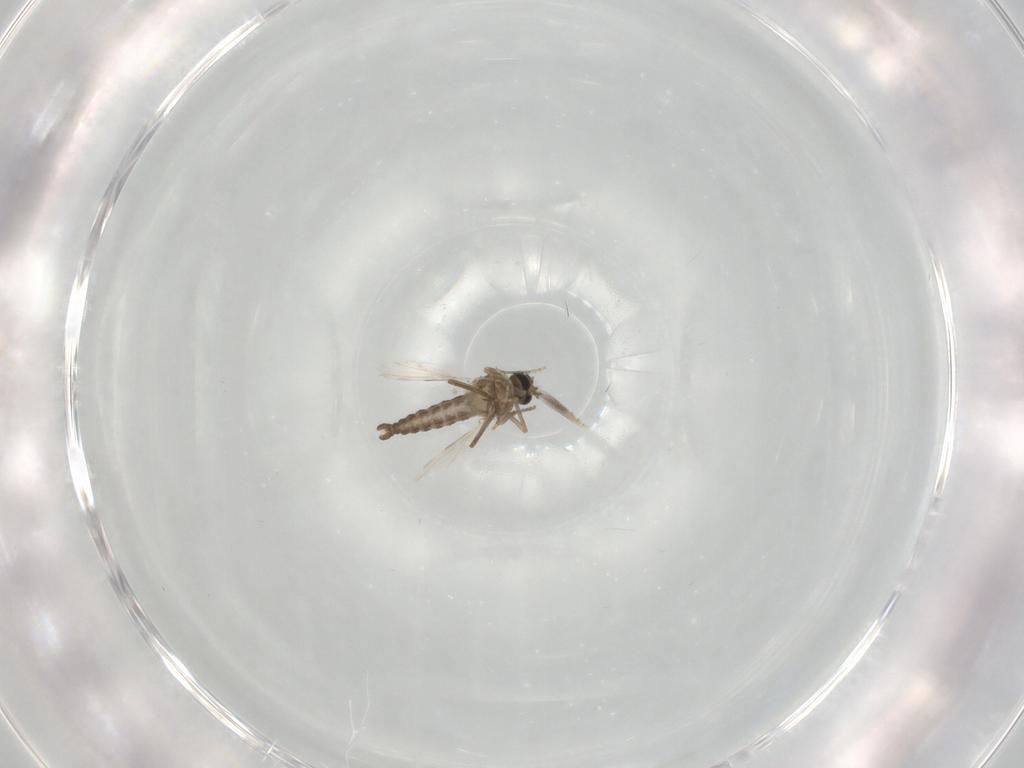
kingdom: Animalia
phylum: Arthropoda
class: Insecta
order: Diptera
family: Ceratopogonidae
